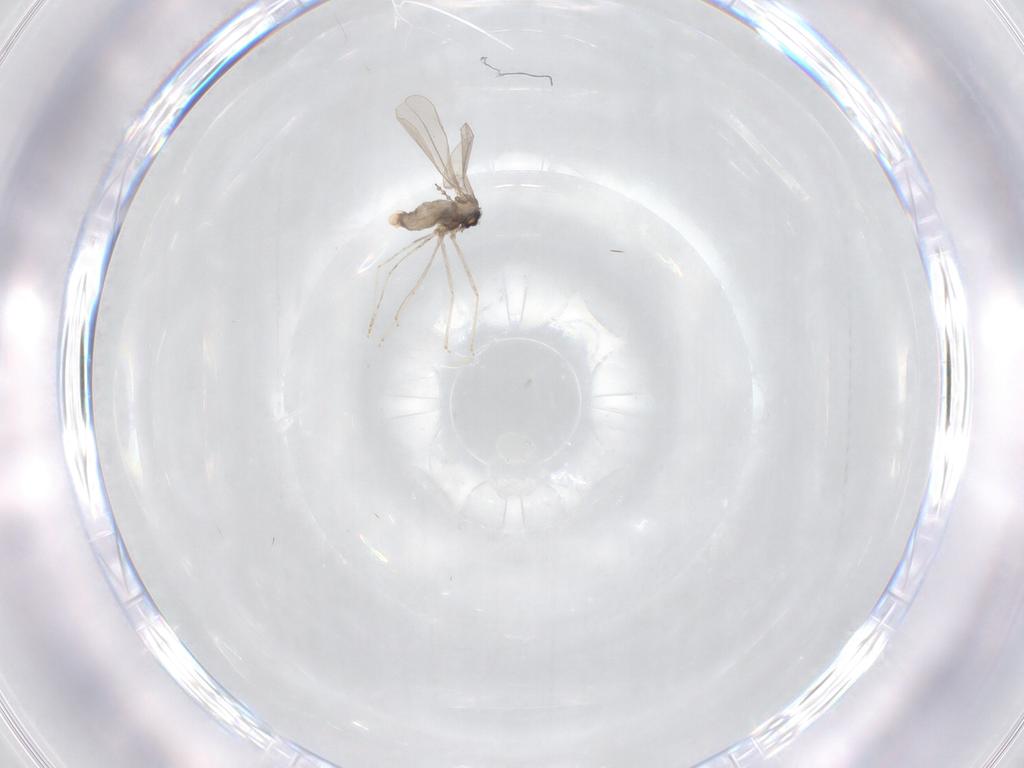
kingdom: Animalia
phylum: Arthropoda
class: Insecta
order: Diptera
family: Cecidomyiidae
